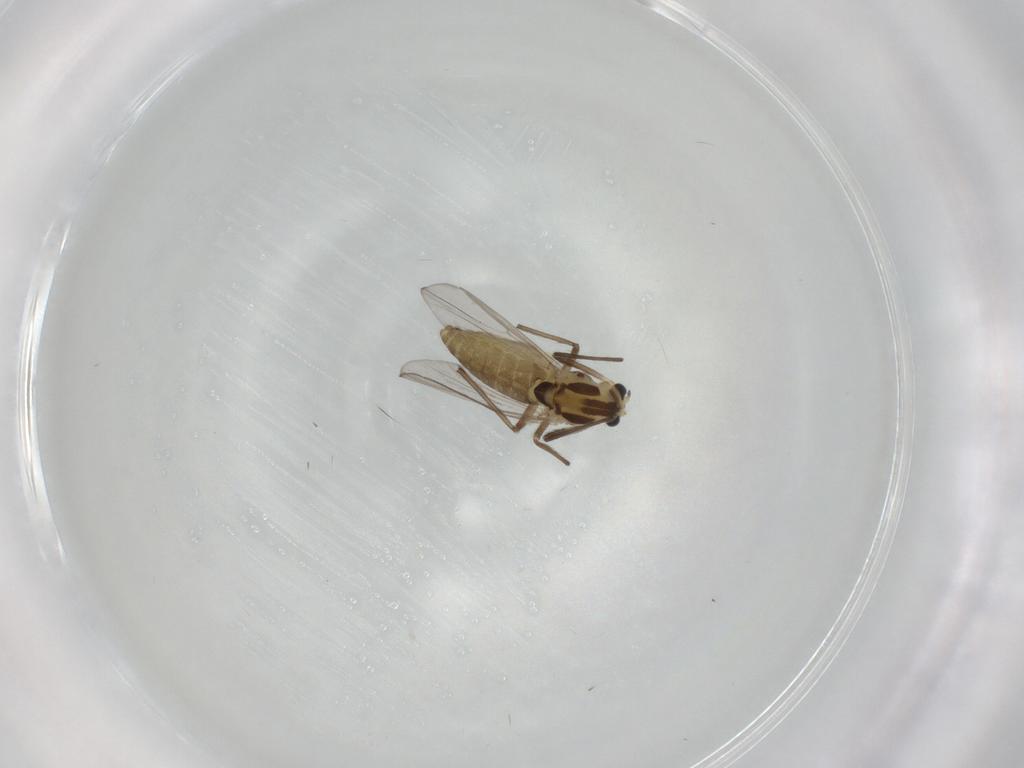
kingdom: Animalia
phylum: Arthropoda
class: Insecta
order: Diptera
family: Chironomidae
